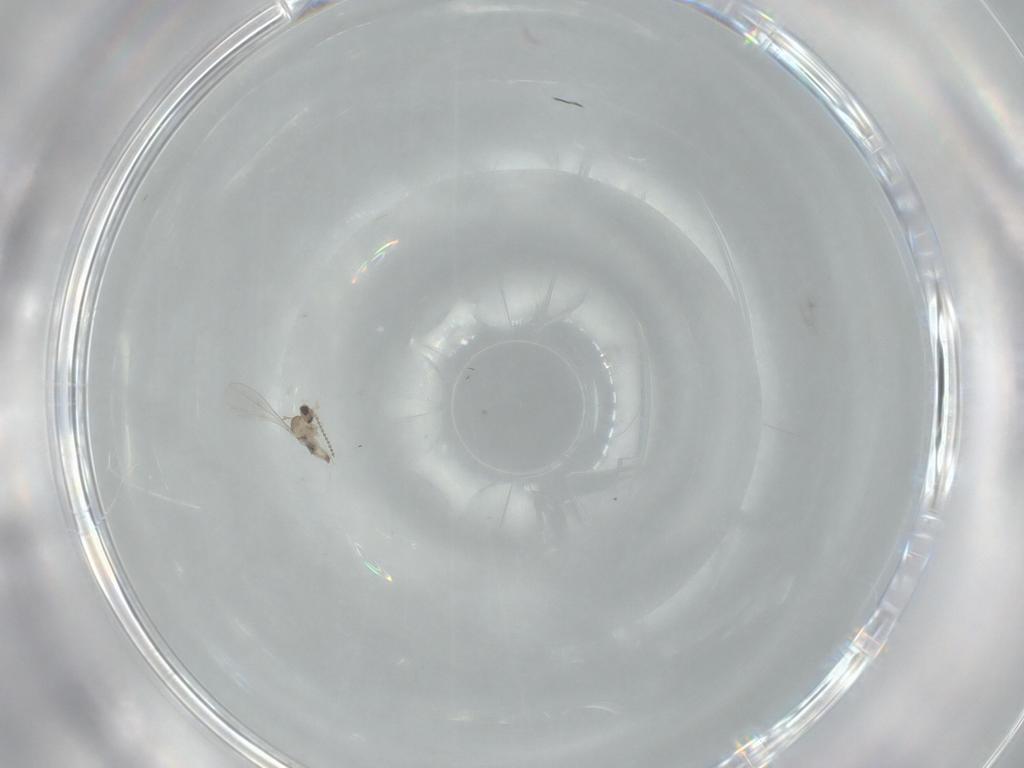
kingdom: Animalia
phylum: Arthropoda
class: Insecta
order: Diptera
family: Cecidomyiidae
